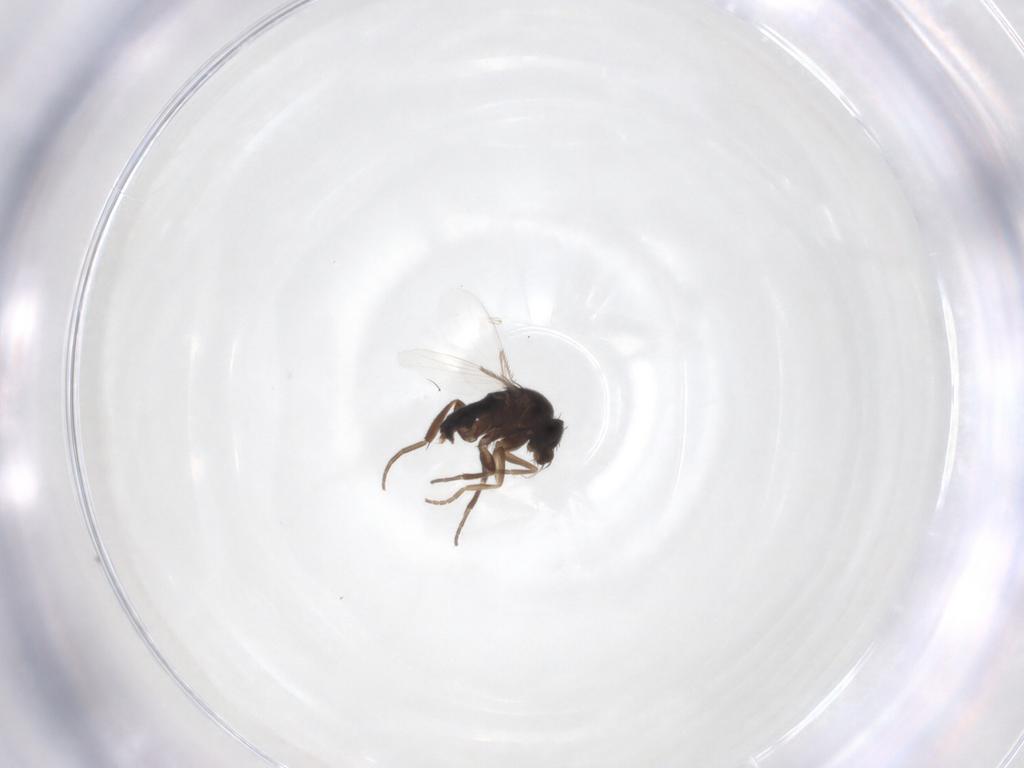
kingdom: Animalia
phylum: Arthropoda
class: Insecta
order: Diptera
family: Phoridae
